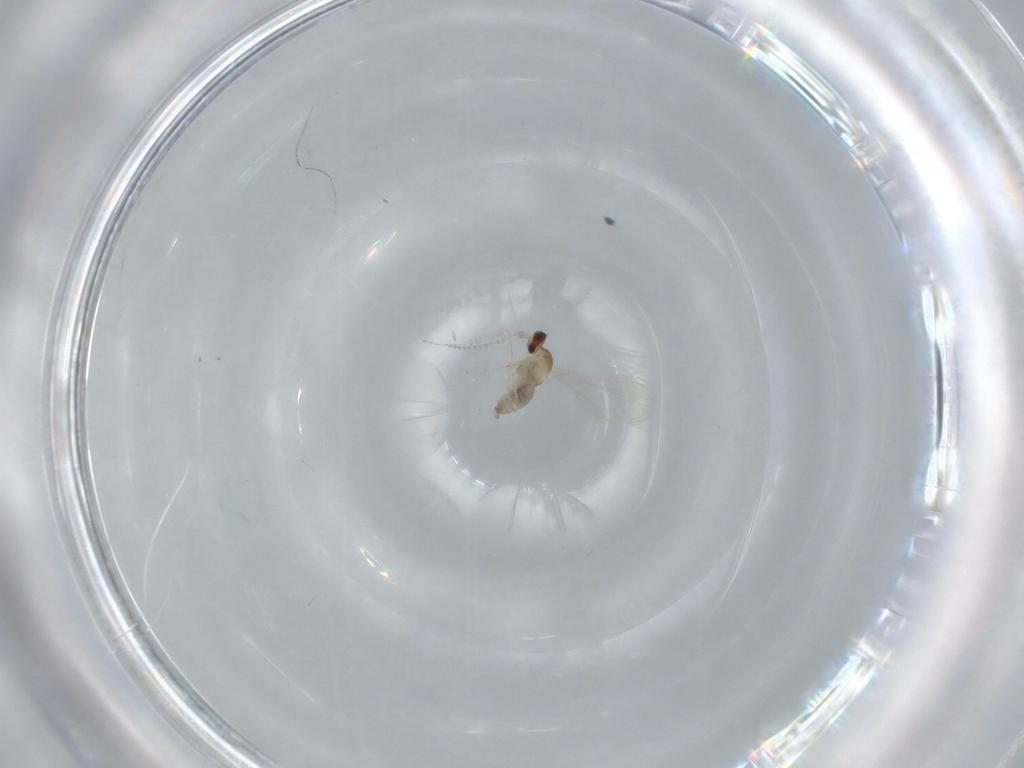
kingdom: Animalia
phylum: Arthropoda
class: Insecta
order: Diptera
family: Cecidomyiidae
